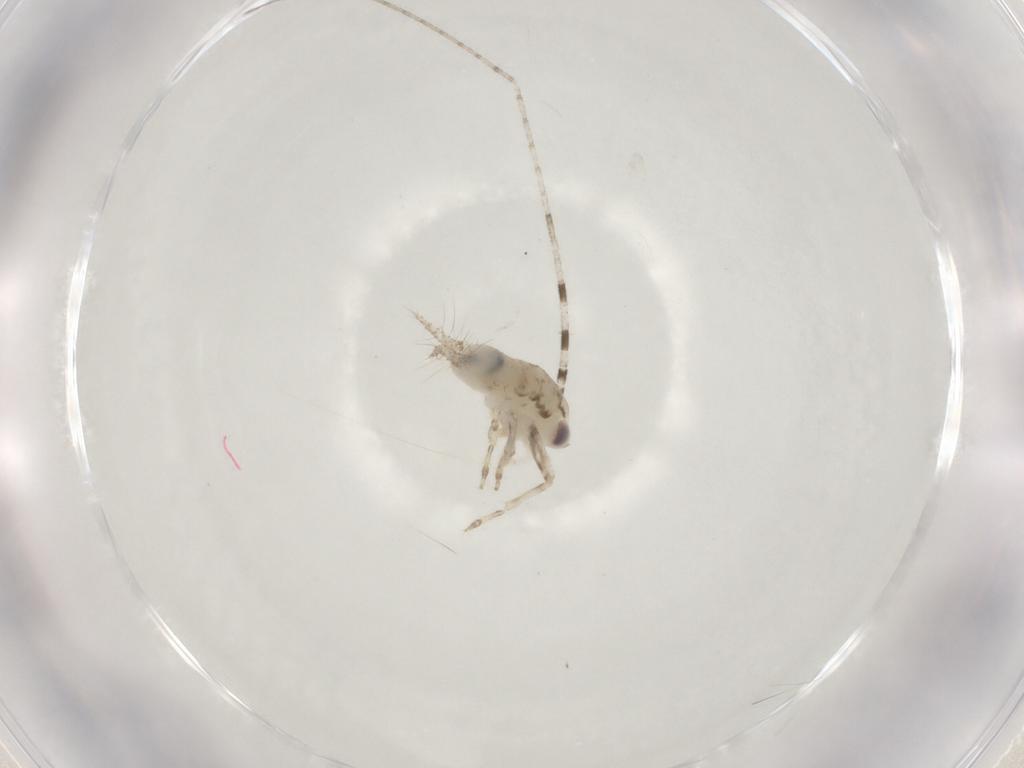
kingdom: Animalia
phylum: Arthropoda
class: Insecta
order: Orthoptera
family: Trigonidiidae
